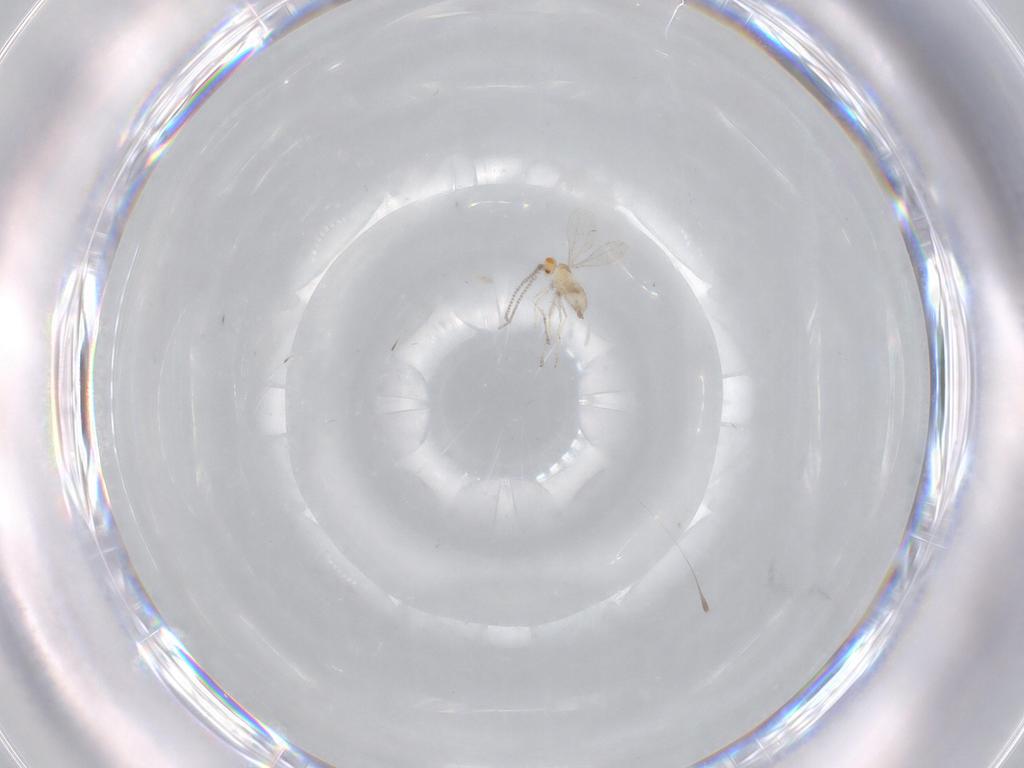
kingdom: Animalia
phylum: Arthropoda
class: Insecta
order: Diptera
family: Cecidomyiidae
